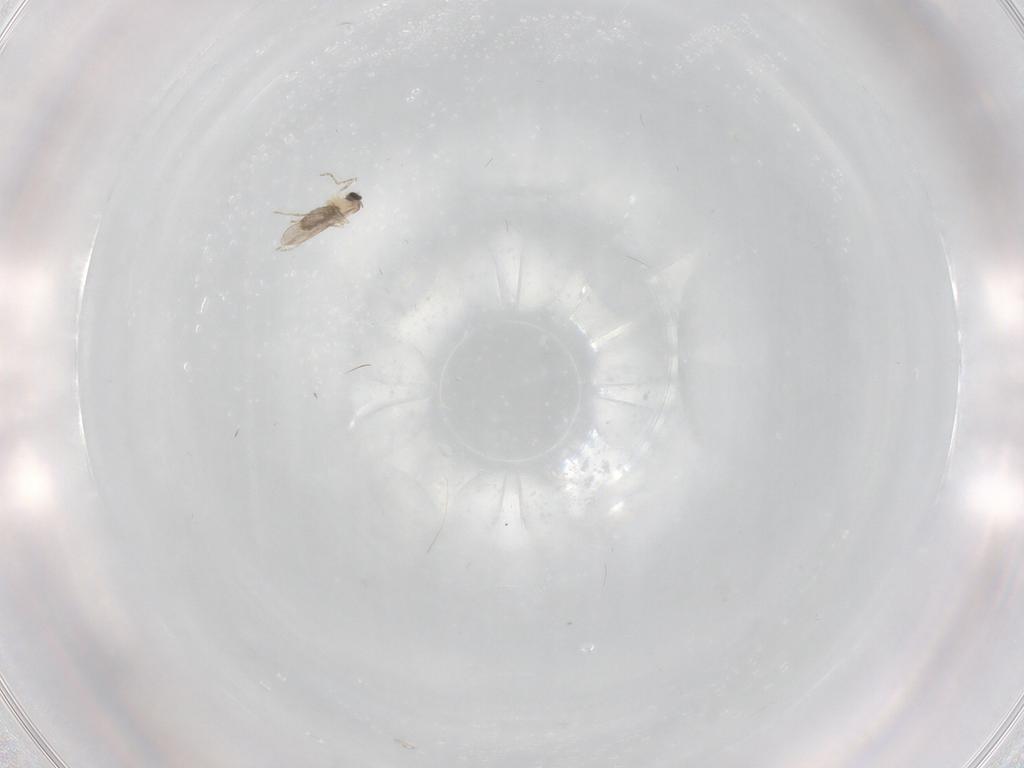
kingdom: Animalia
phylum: Arthropoda
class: Insecta
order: Diptera
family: Cecidomyiidae
